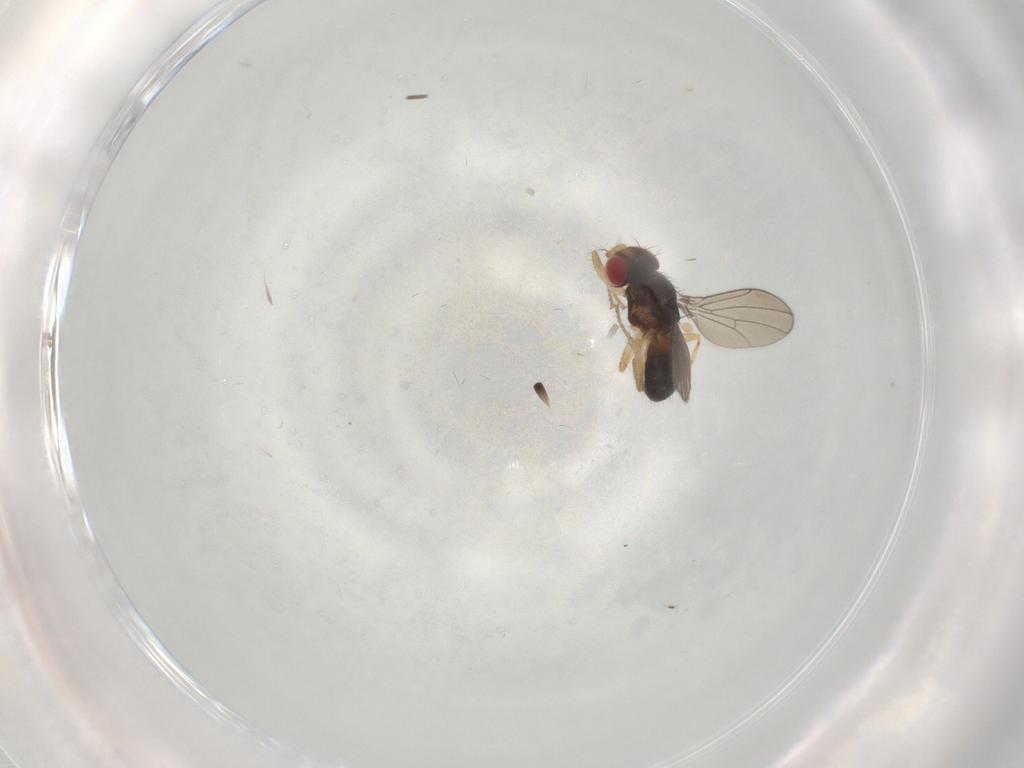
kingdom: Animalia
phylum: Arthropoda
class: Insecta
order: Diptera
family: Drosophilidae
